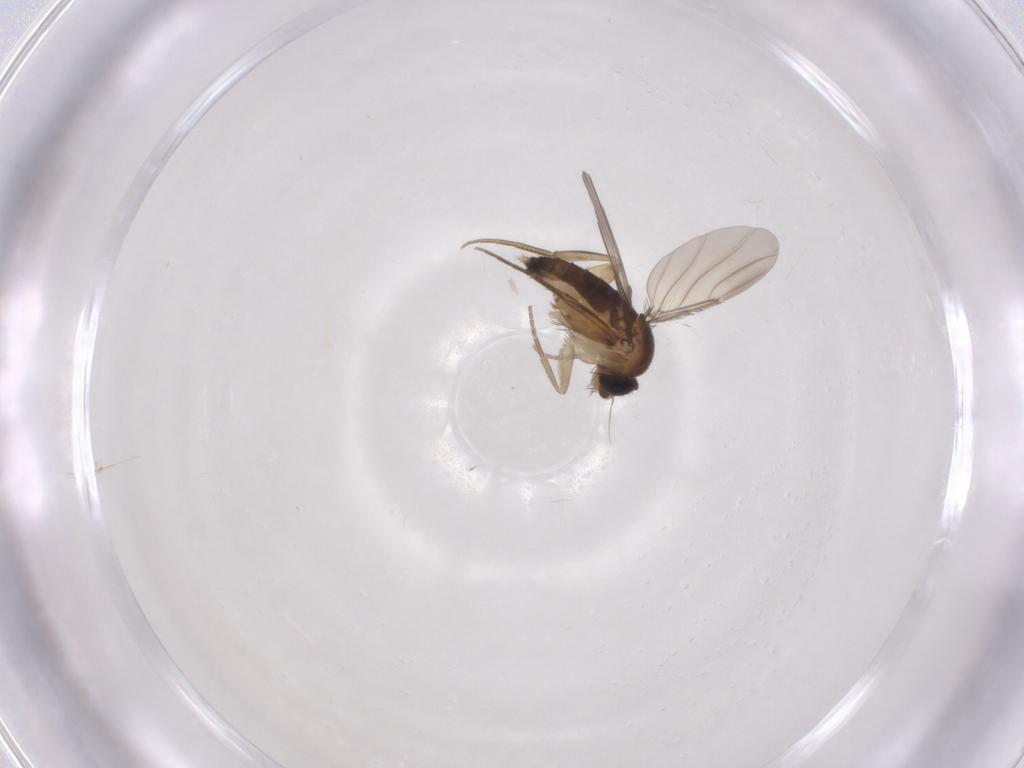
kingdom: Animalia
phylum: Arthropoda
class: Insecta
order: Diptera
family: Phoridae
